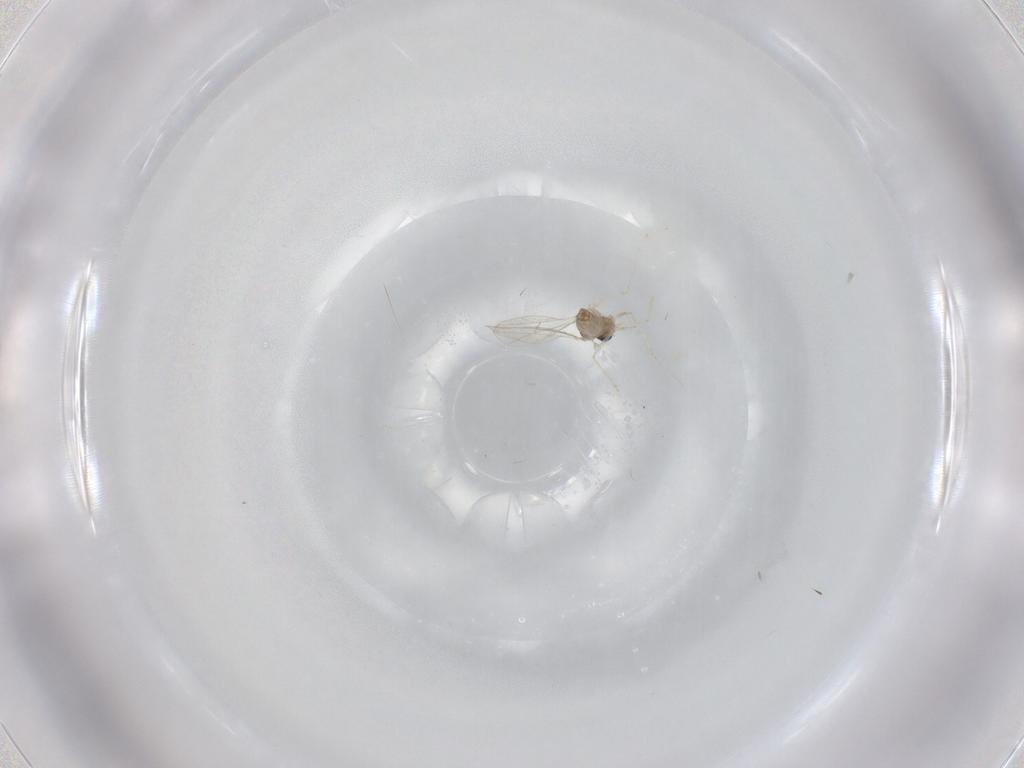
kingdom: Animalia
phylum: Arthropoda
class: Insecta
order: Diptera
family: Cecidomyiidae
